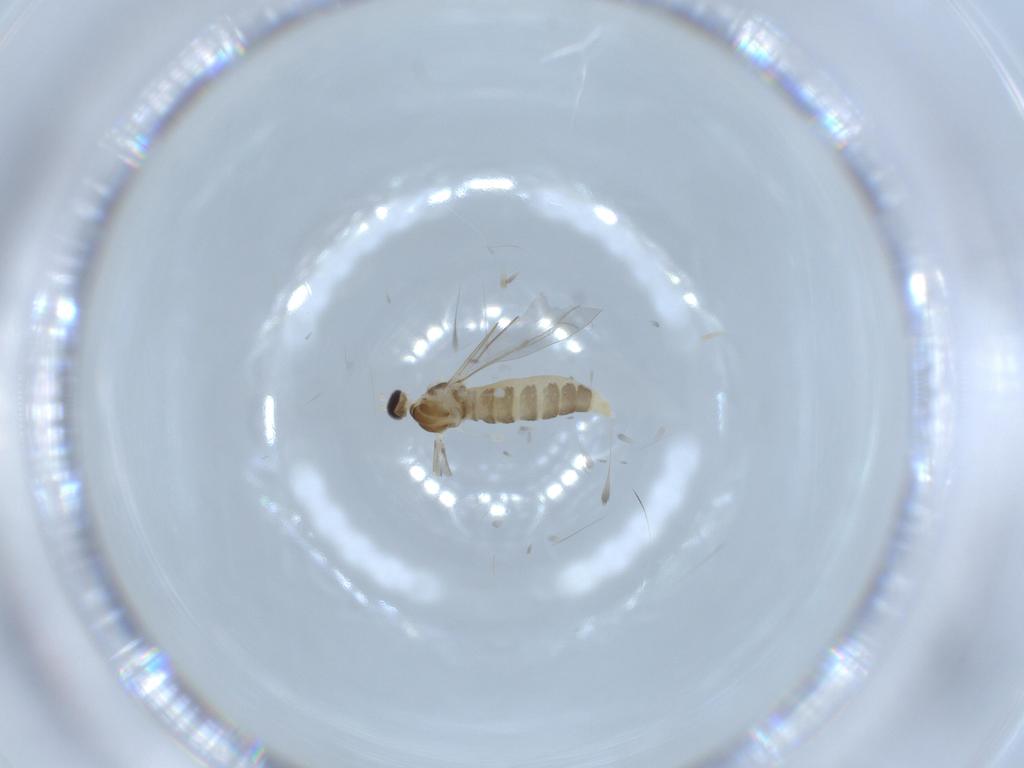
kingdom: Animalia
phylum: Arthropoda
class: Insecta
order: Diptera
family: Cecidomyiidae
